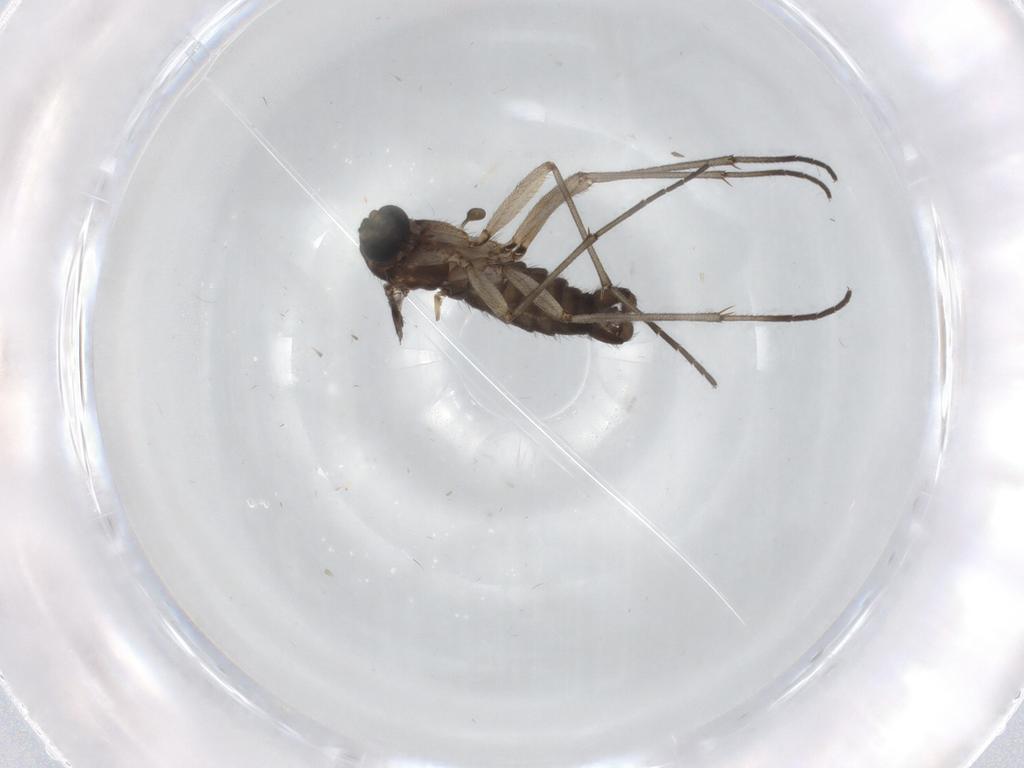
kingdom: Animalia
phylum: Arthropoda
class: Insecta
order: Diptera
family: Sciaridae
